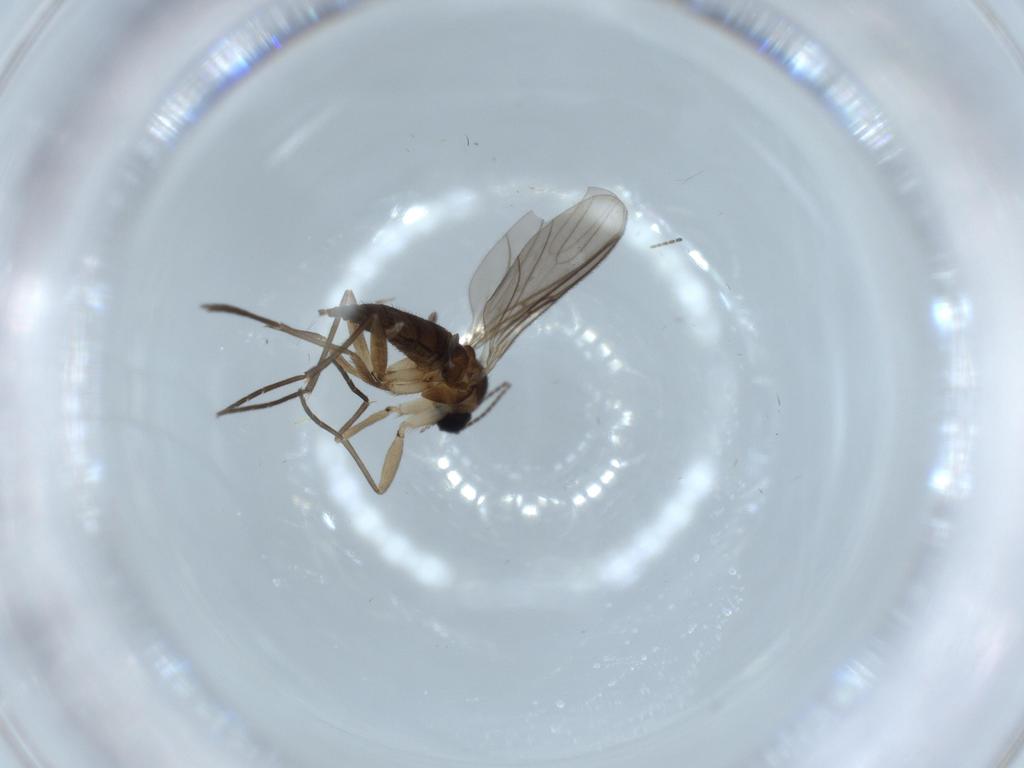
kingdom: Animalia
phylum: Arthropoda
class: Insecta
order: Diptera
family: Sciaridae
